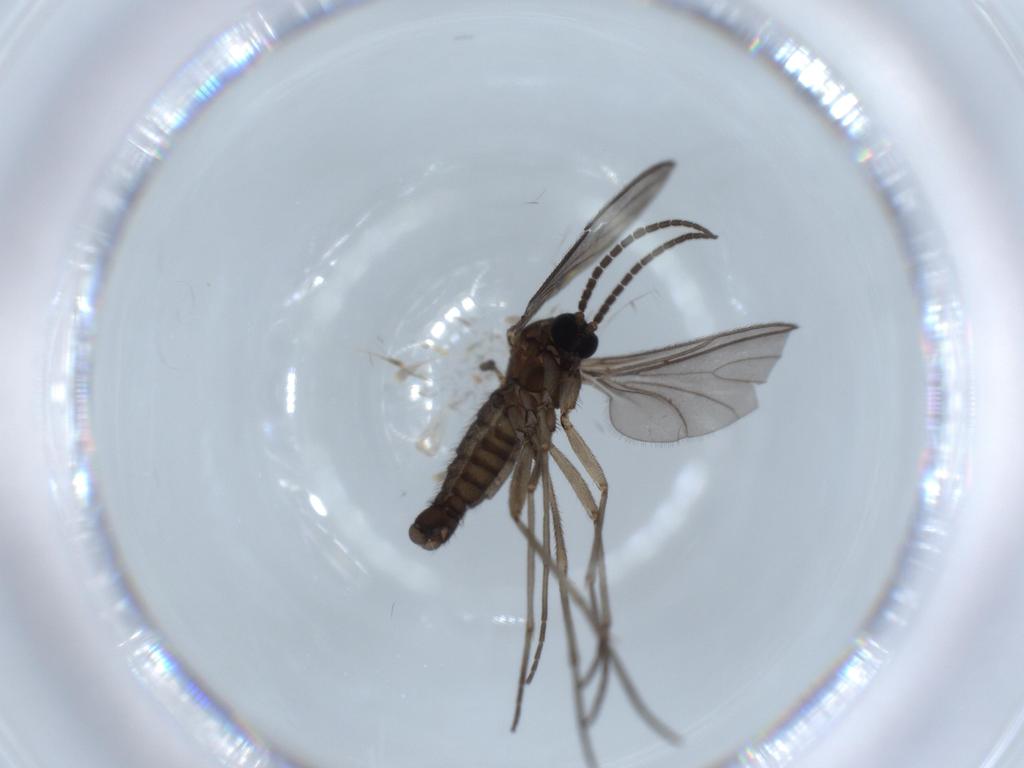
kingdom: Animalia
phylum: Arthropoda
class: Insecta
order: Diptera
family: Sciaridae
